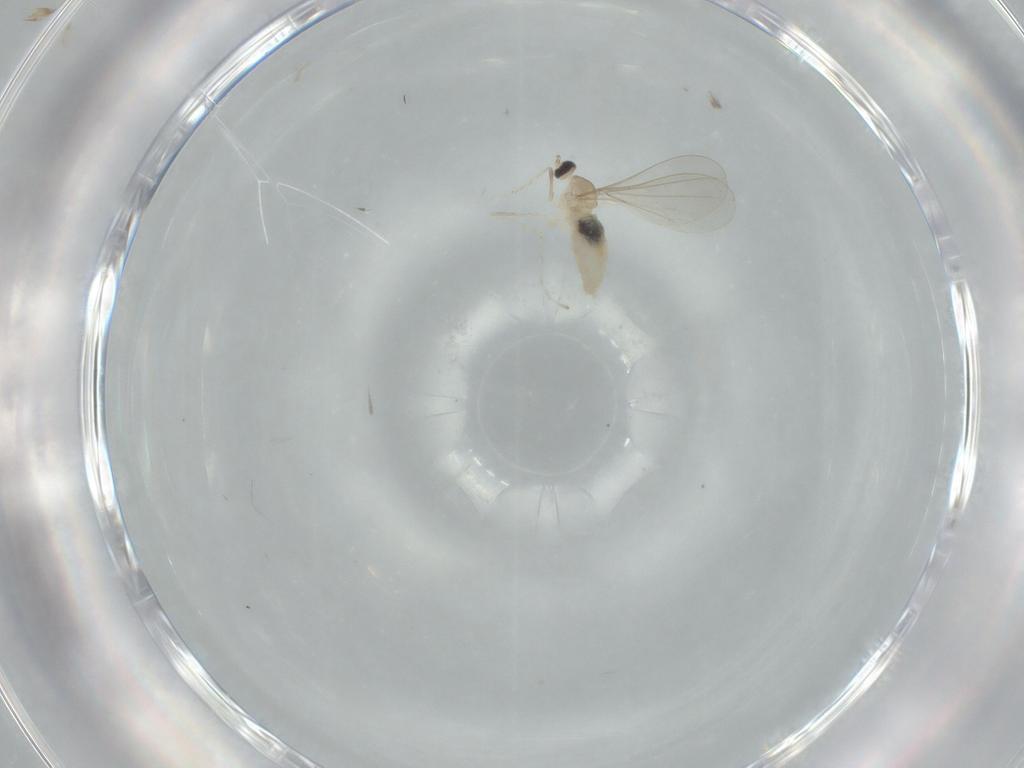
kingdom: Animalia
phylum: Arthropoda
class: Insecta
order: Diptera
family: Cecidomyiidae
